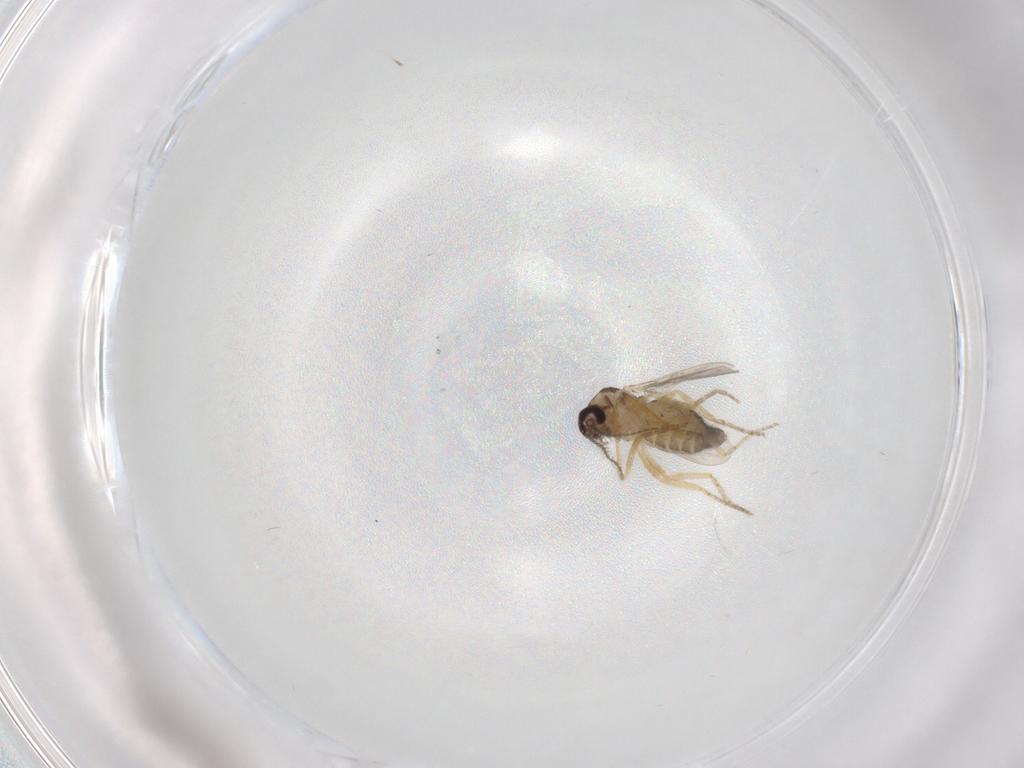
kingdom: Animalia
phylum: Arthropoda
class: Insecta
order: Diptera
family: Ceratopogonidae
